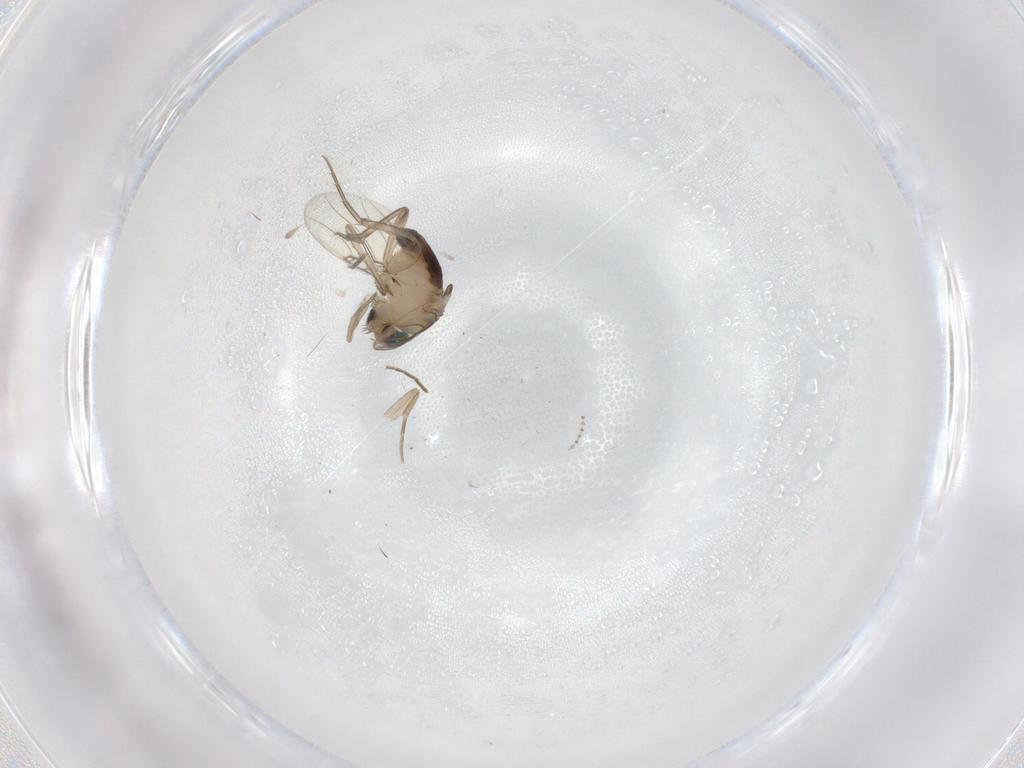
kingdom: Animalia
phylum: Arthropoda
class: Insecta
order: Diptera
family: Phoridae
